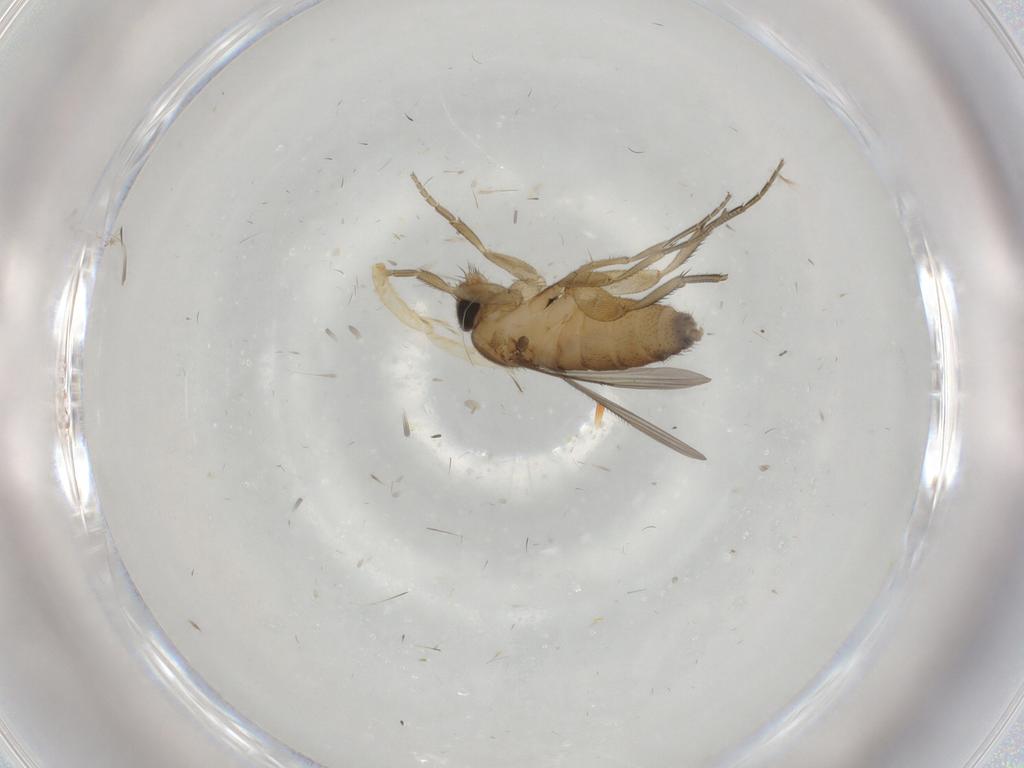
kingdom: Animalia
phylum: Arthropoda
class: Insecta
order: Diptera
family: Phoridae
